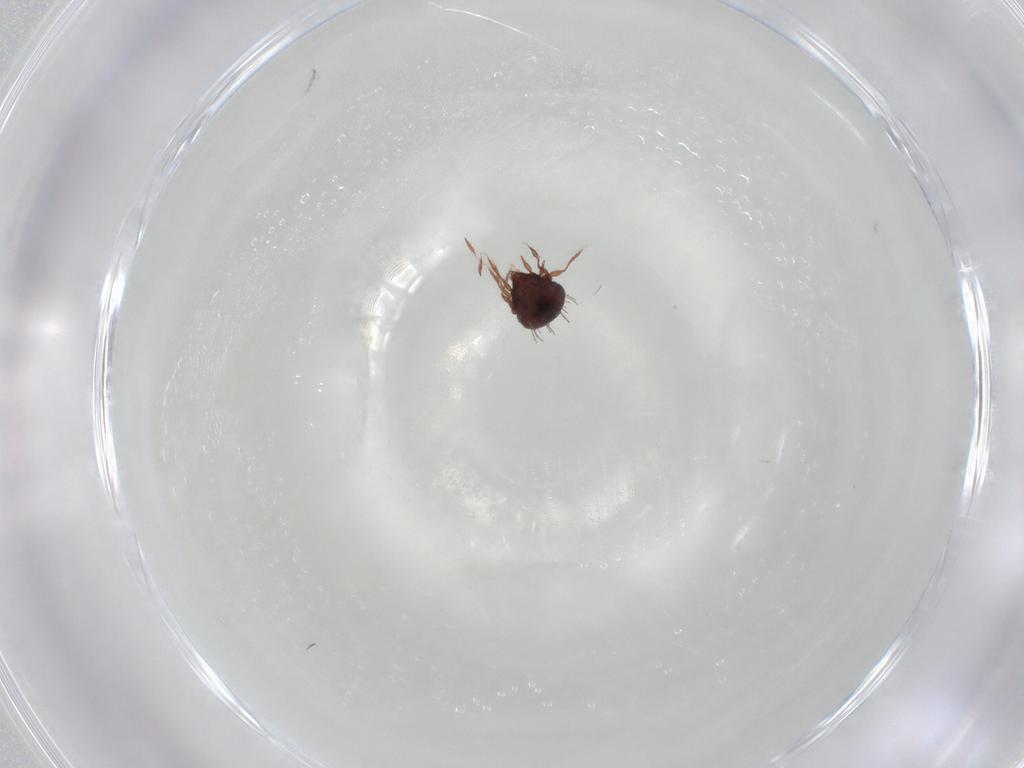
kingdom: Animalia
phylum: Arthropoda
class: Arachnida
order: Sarcoptiformes
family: Caloppiidae
